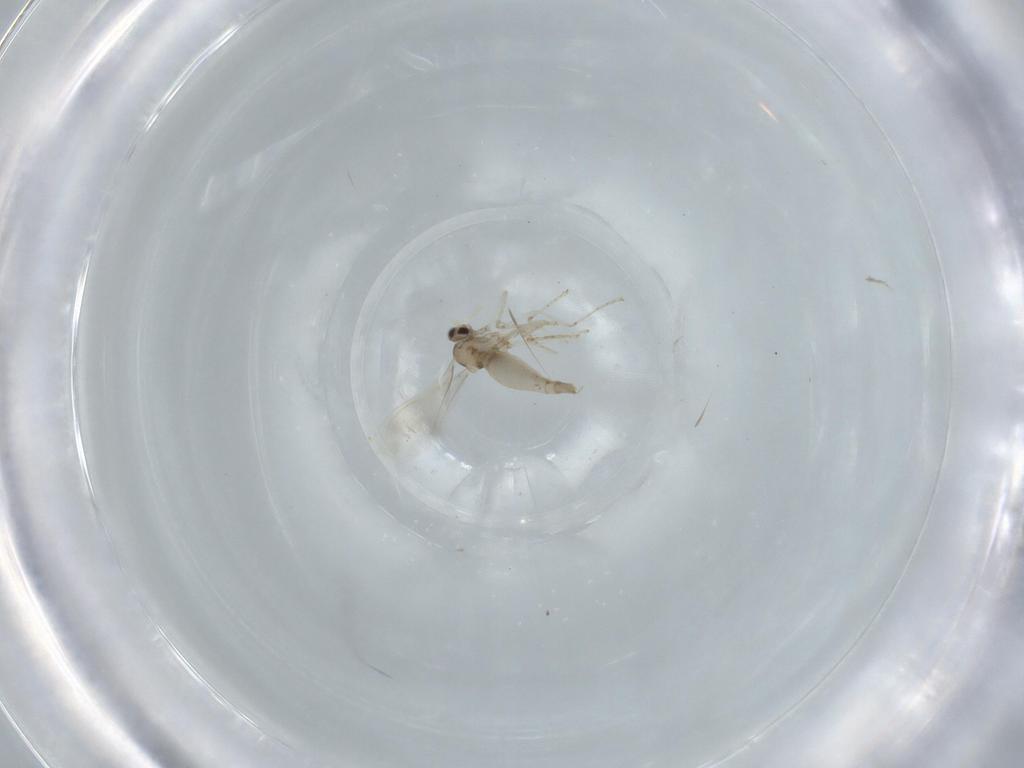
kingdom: Animalia
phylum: Arthropoda
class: Insecta
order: Diptera
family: Cecidomyiidae
